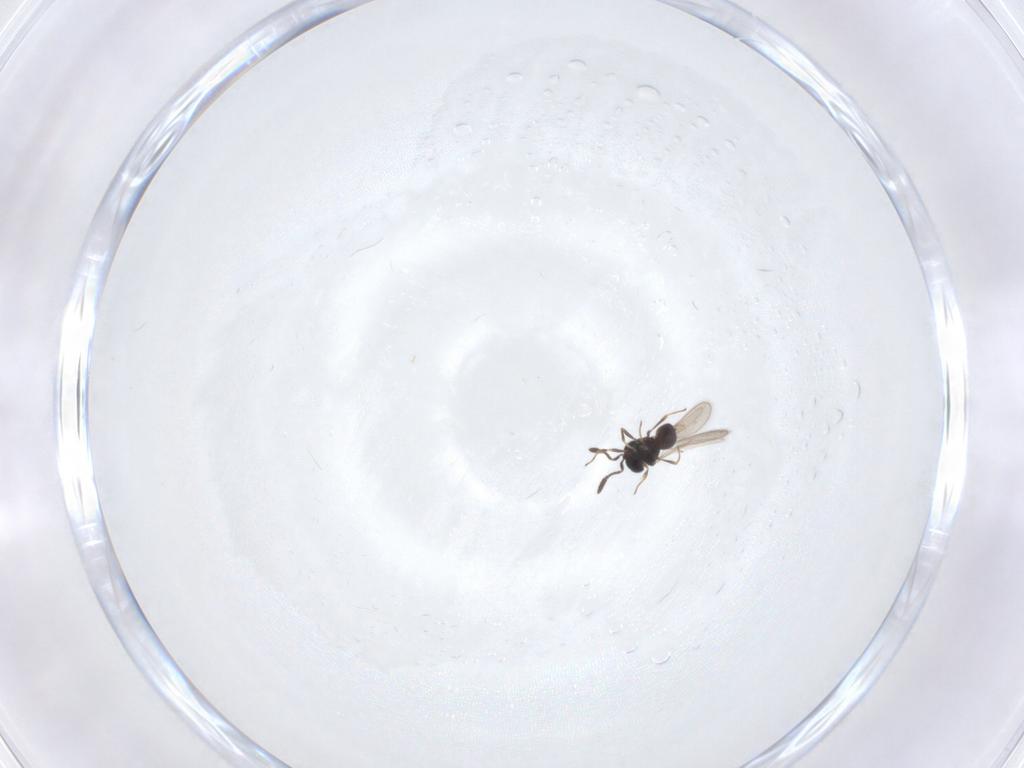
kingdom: Animalia
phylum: Arthropoda
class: Insecta
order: Hymenoptera
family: Scelionidae
